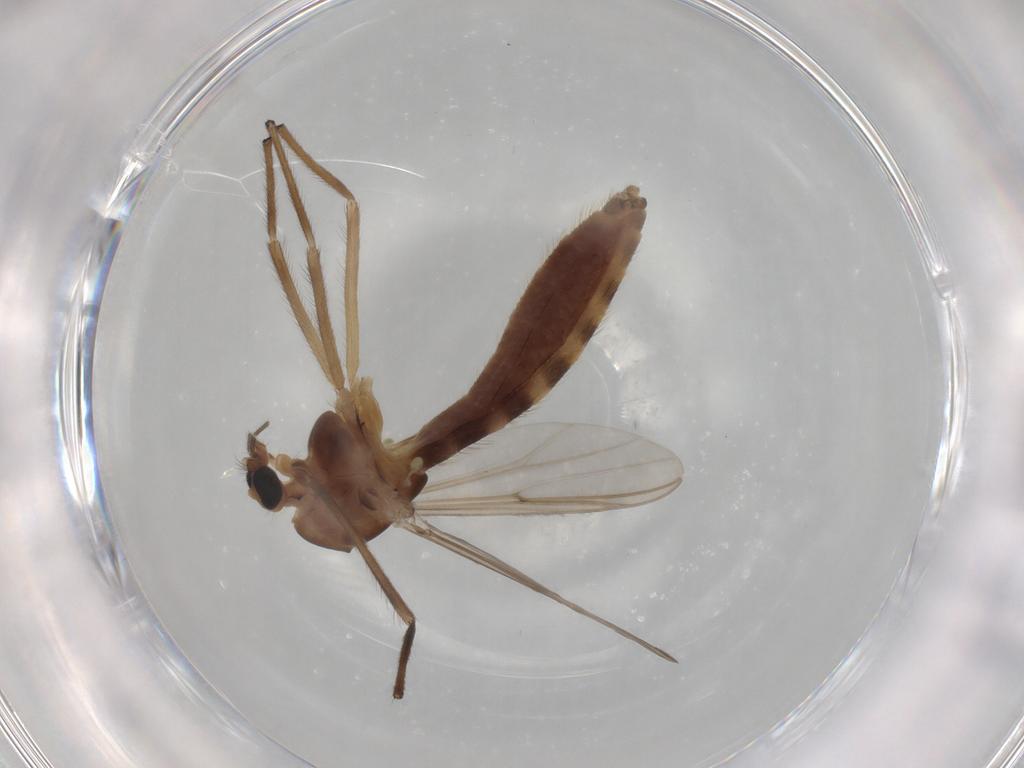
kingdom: Animalia
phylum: Arthropoda
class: Insecta
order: Diptera
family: Chironomidae
